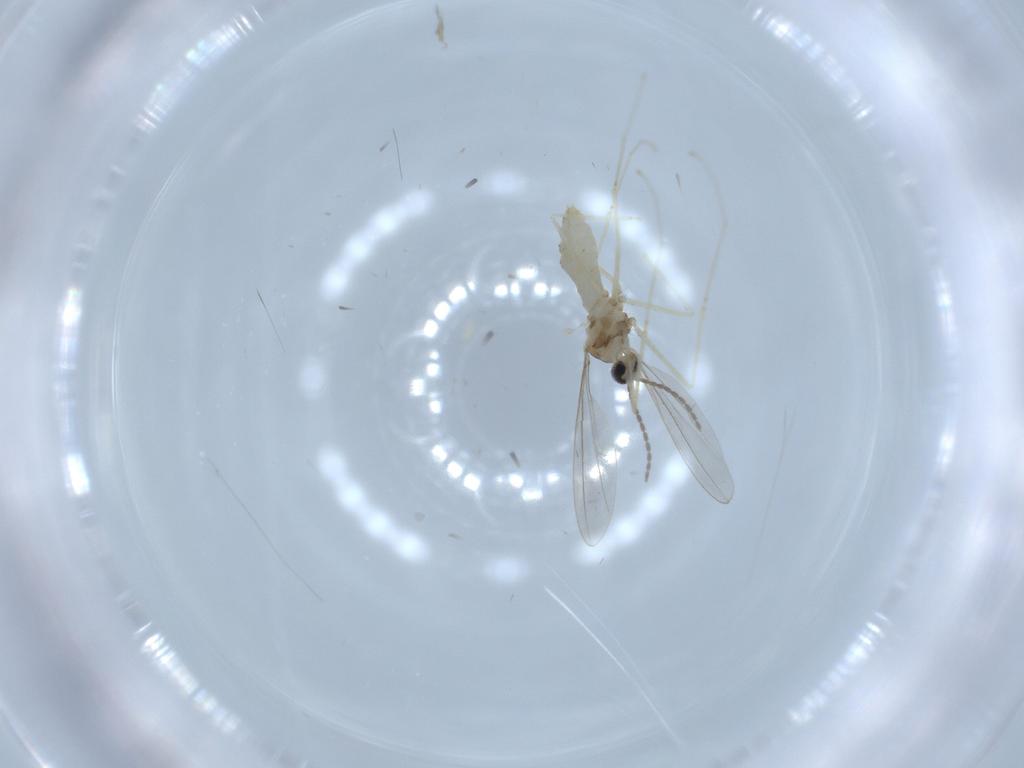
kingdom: Animalia
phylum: Arthropoda
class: Insecta
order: Diptera
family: Cecidomyiidae
